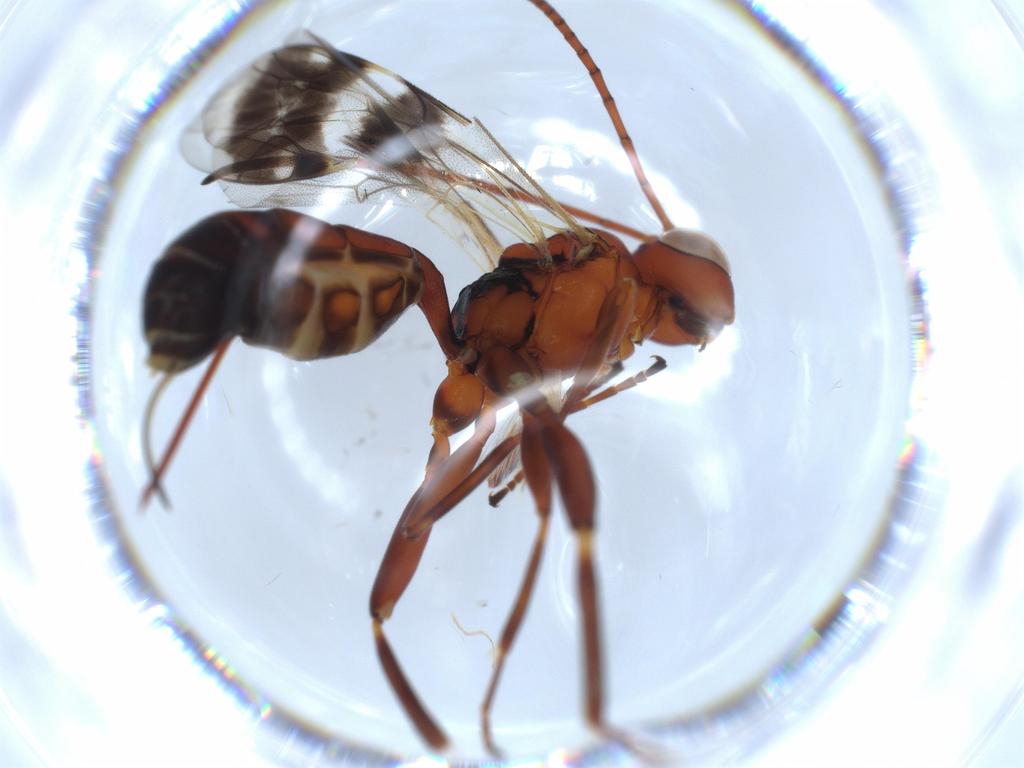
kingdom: Animalia
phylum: Arthropoda
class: Insecta
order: Hymenoptera
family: Ichneumonidae
